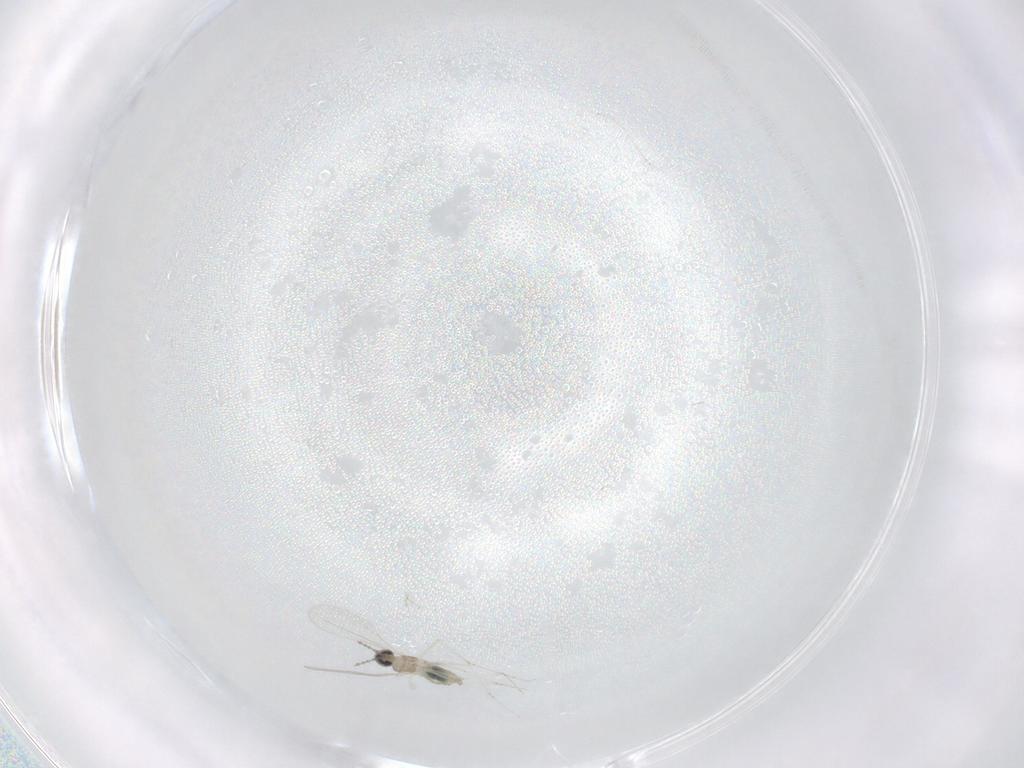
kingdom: Animalia
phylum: Arthropoda
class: Insecta
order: Diptera
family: Cecidomyiidae
